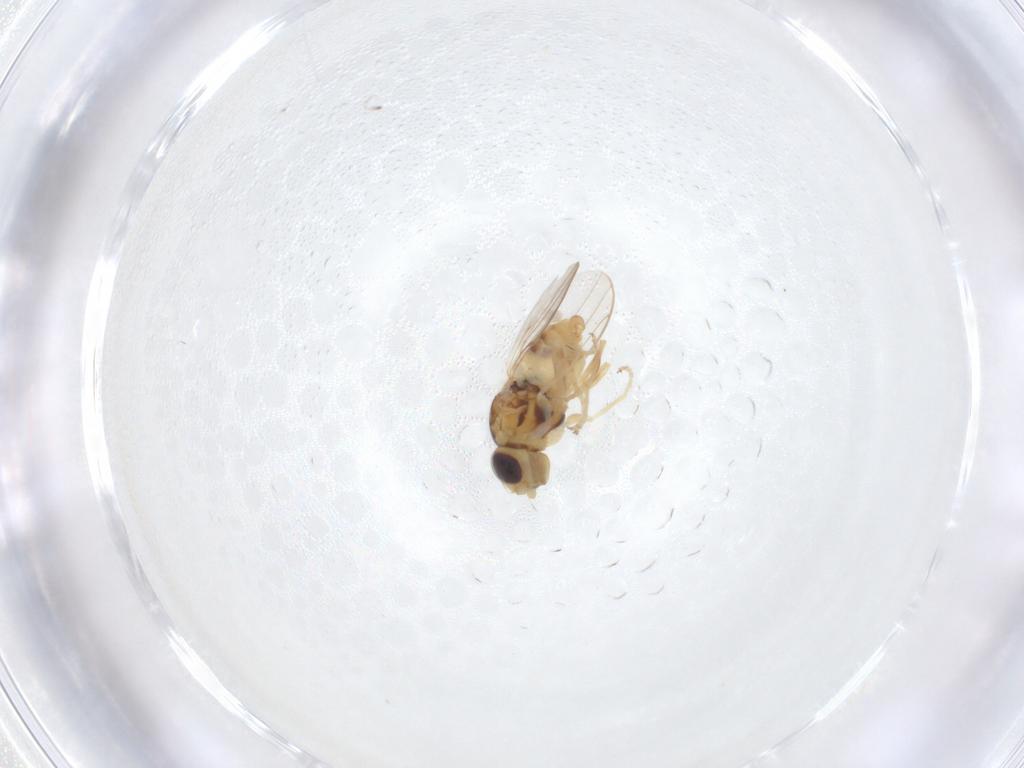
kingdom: Animalia
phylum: Arthropoda
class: Insecta
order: Diptera
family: Chloropidae
